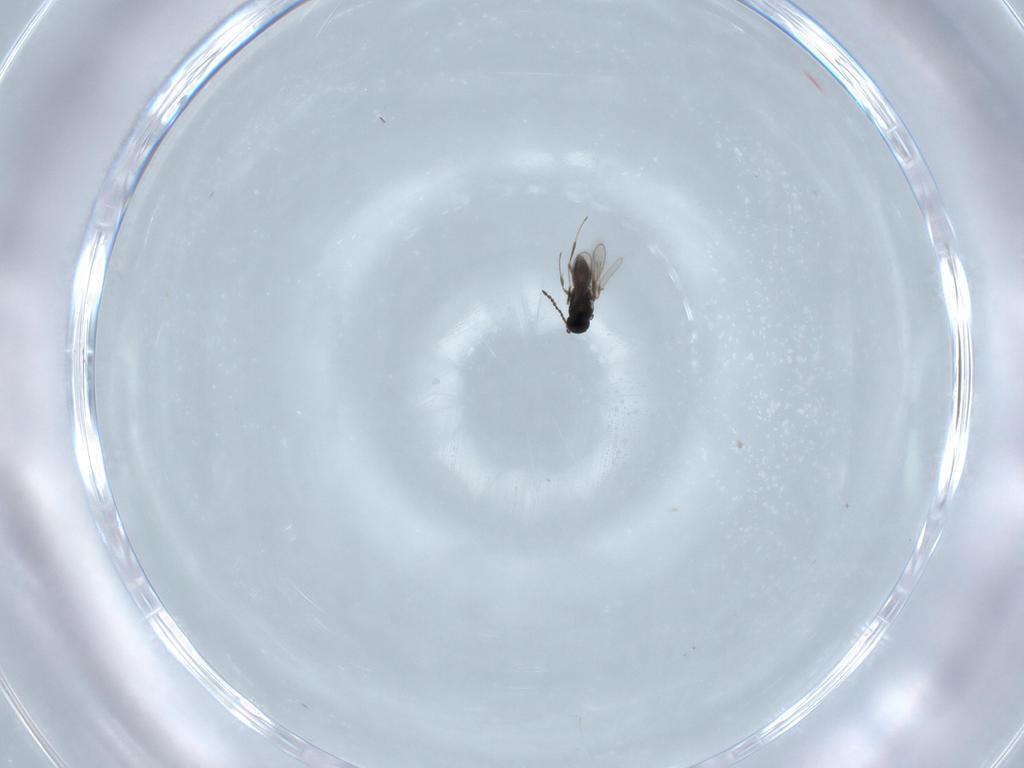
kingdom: Animalia
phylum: Arthropoda
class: Insecta
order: Hymenoptera
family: Scelionidae
